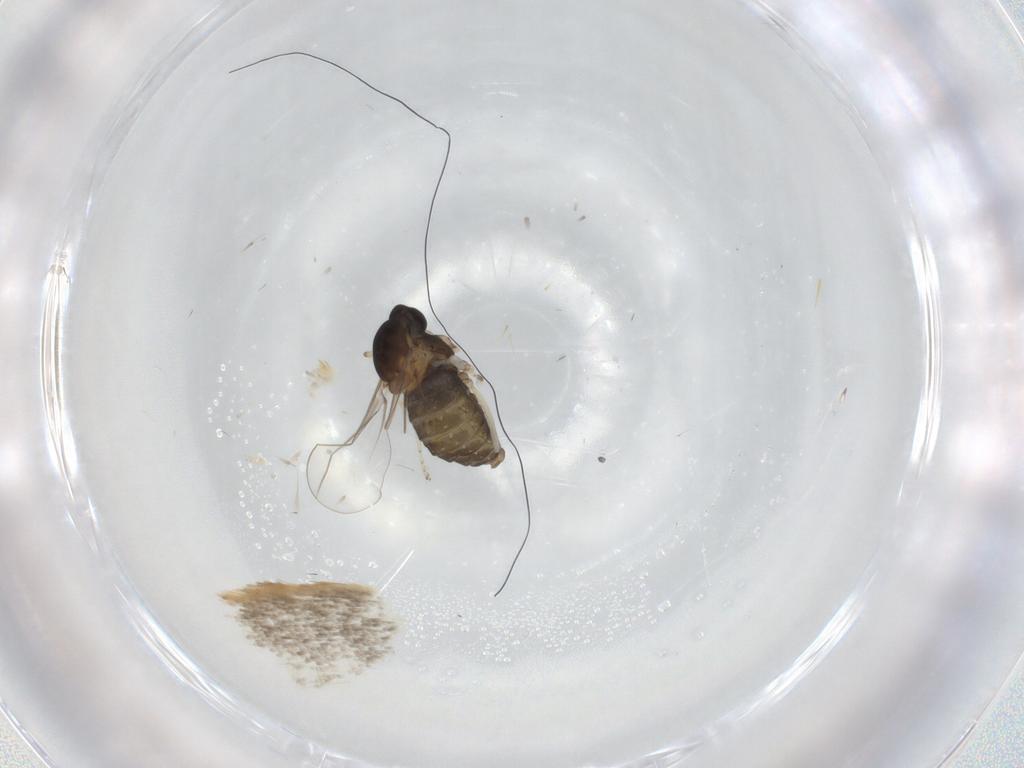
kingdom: Animalia
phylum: Arthropoda
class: Insecta
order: Diptera
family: Cecidomyiidae
